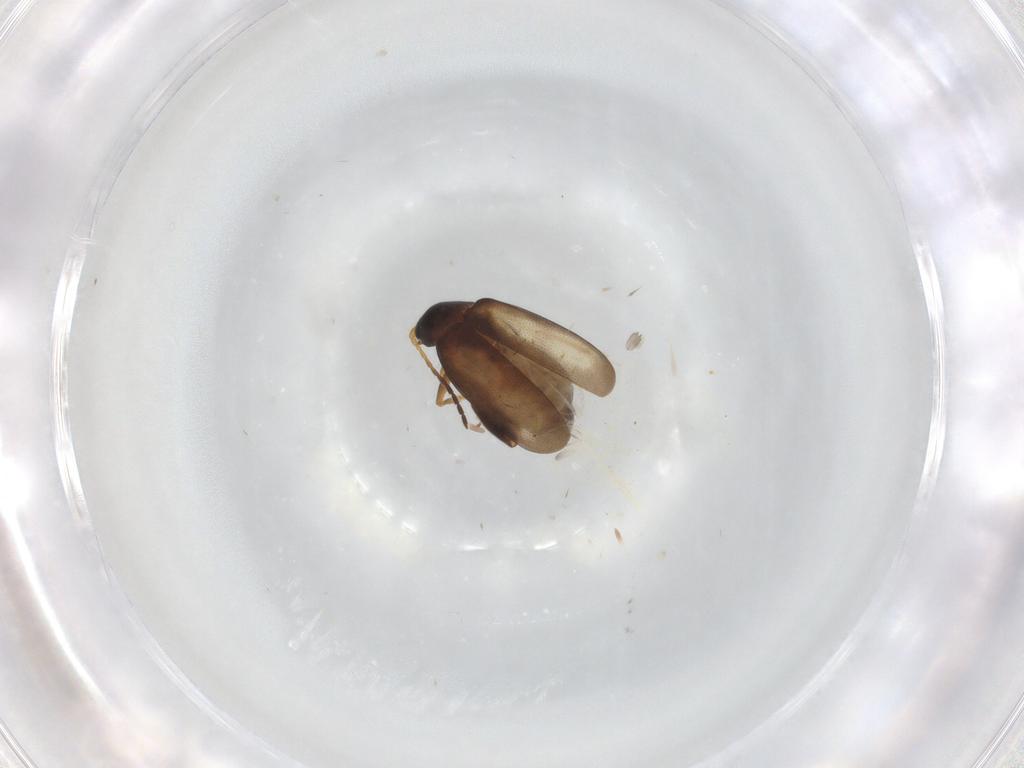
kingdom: Animalia
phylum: Arthropoda
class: Insecta
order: Coleoptera
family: Chrysomelidae
